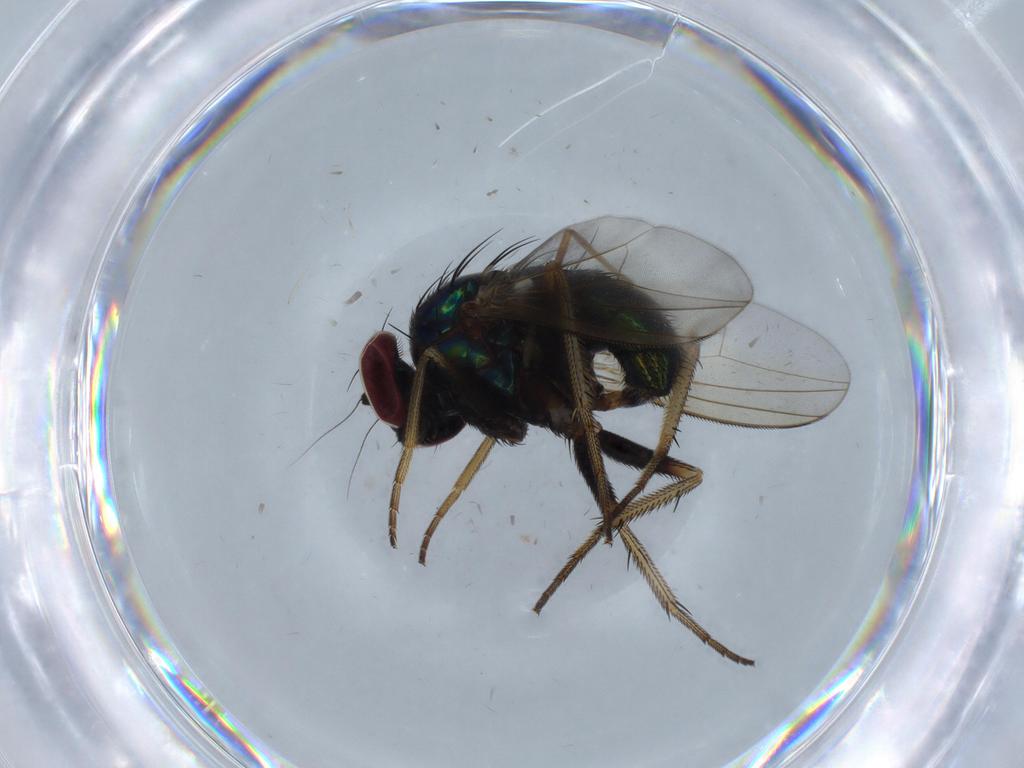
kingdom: Animalia
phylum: Arthropoda
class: Insecta
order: Diptera
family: Dolichopodidae
